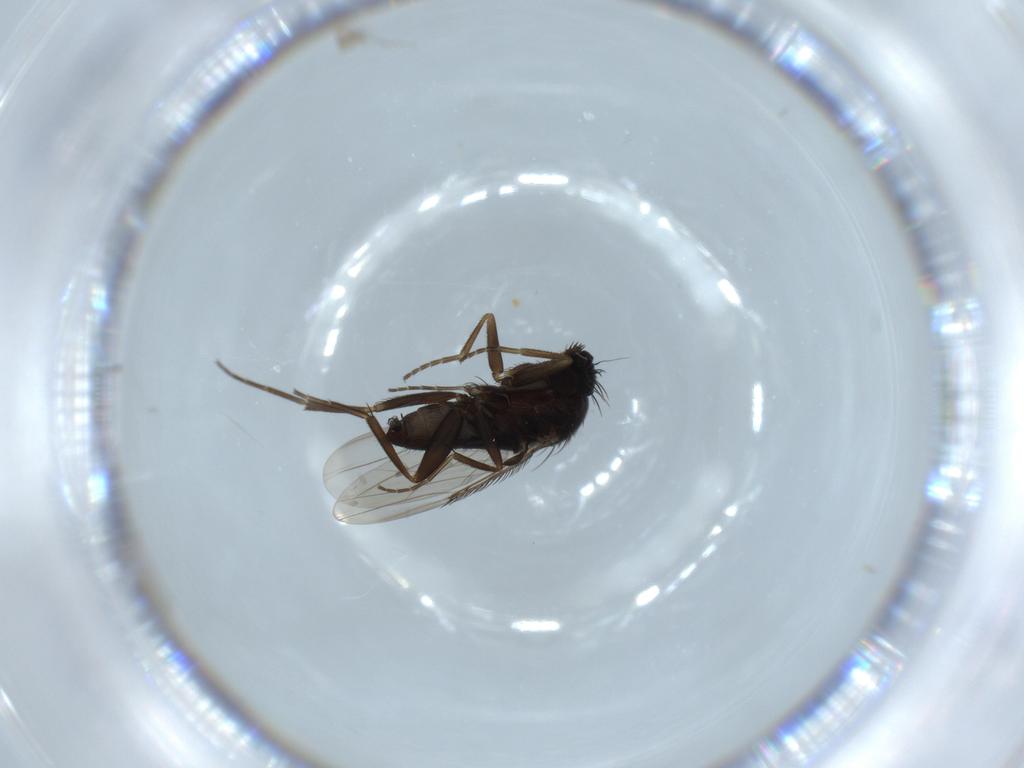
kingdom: Animalia
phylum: Arthropoda
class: Insecta
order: Diptera
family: Phoridae
